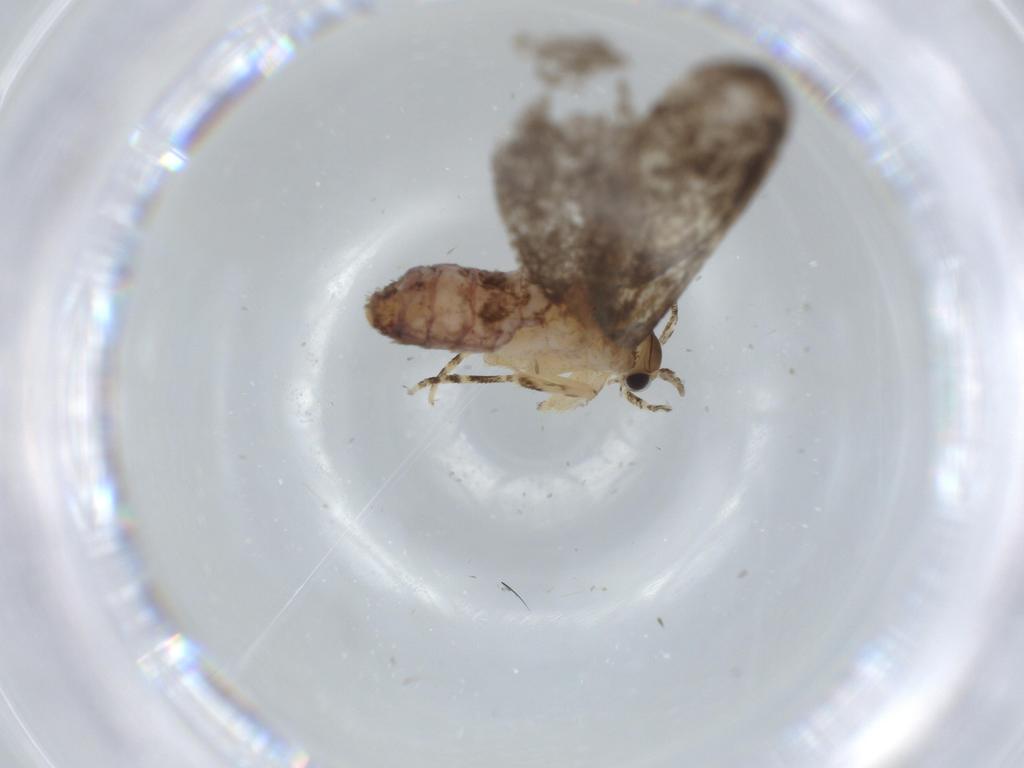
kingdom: Animalia
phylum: Arthropoda
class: Insecta
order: Lepidoptera
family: Tineidae
